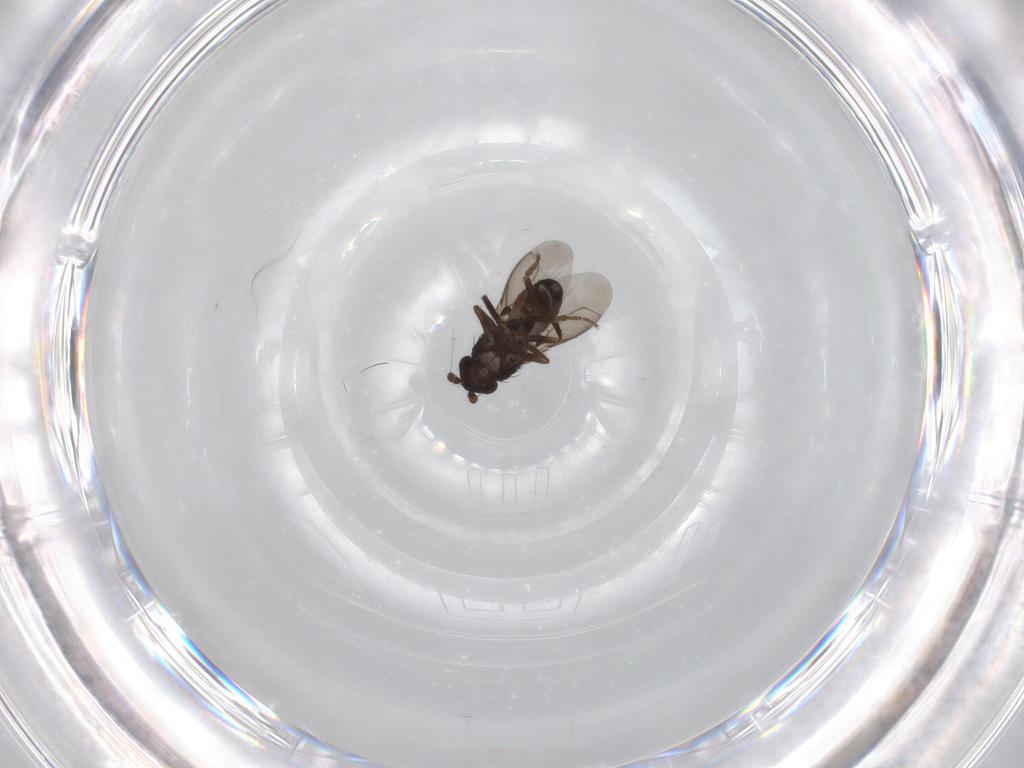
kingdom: Animalia
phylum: Arthropoda
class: Insecta
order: Diptera
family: Sphaeroceridae
